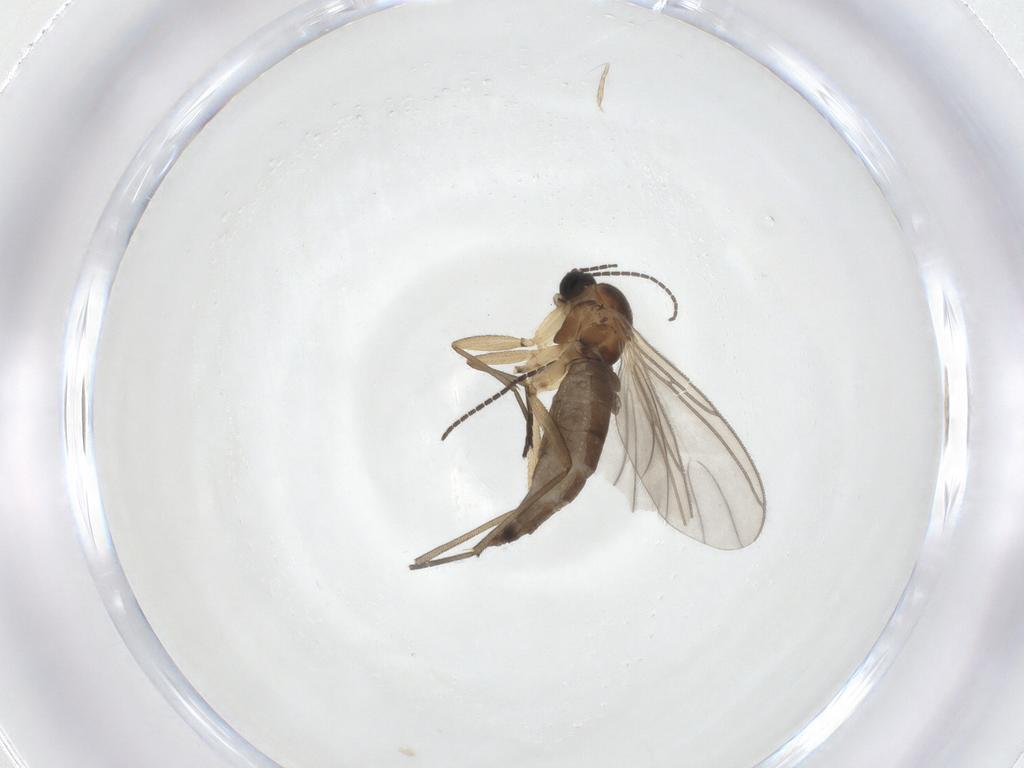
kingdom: Animalia
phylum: Arthropoda
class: Insecta
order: Diptera
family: Sciaridae
